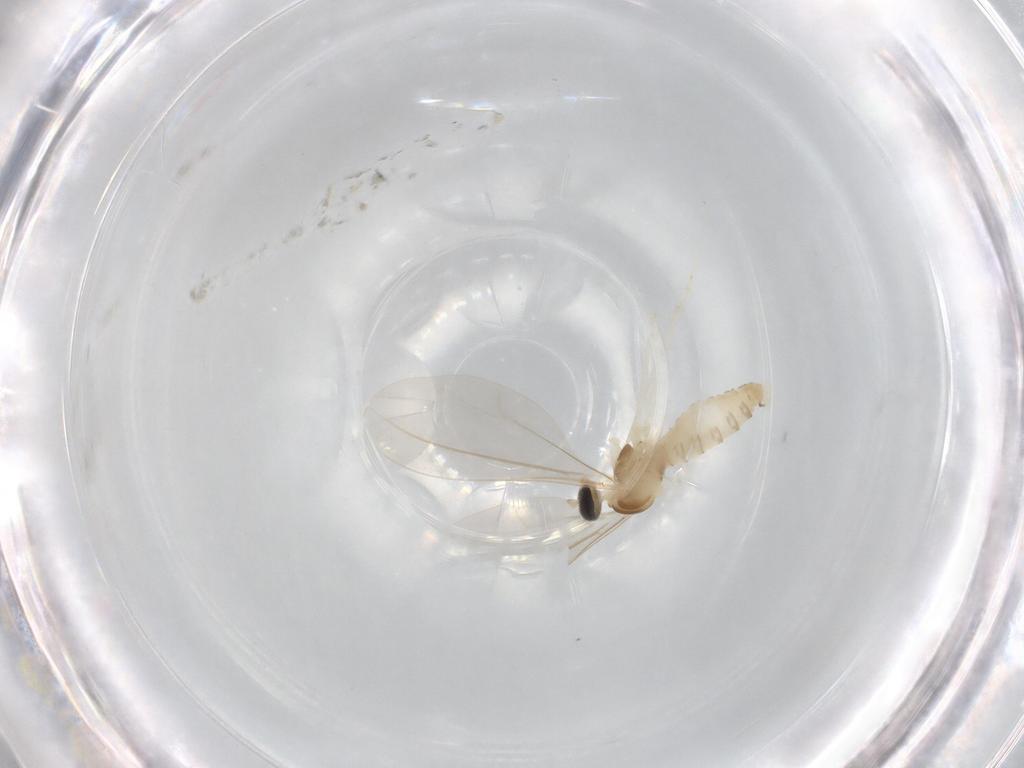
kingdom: Animalia
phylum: Arthropoda
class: Insecta
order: Diptera
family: Cecidomyiidae
